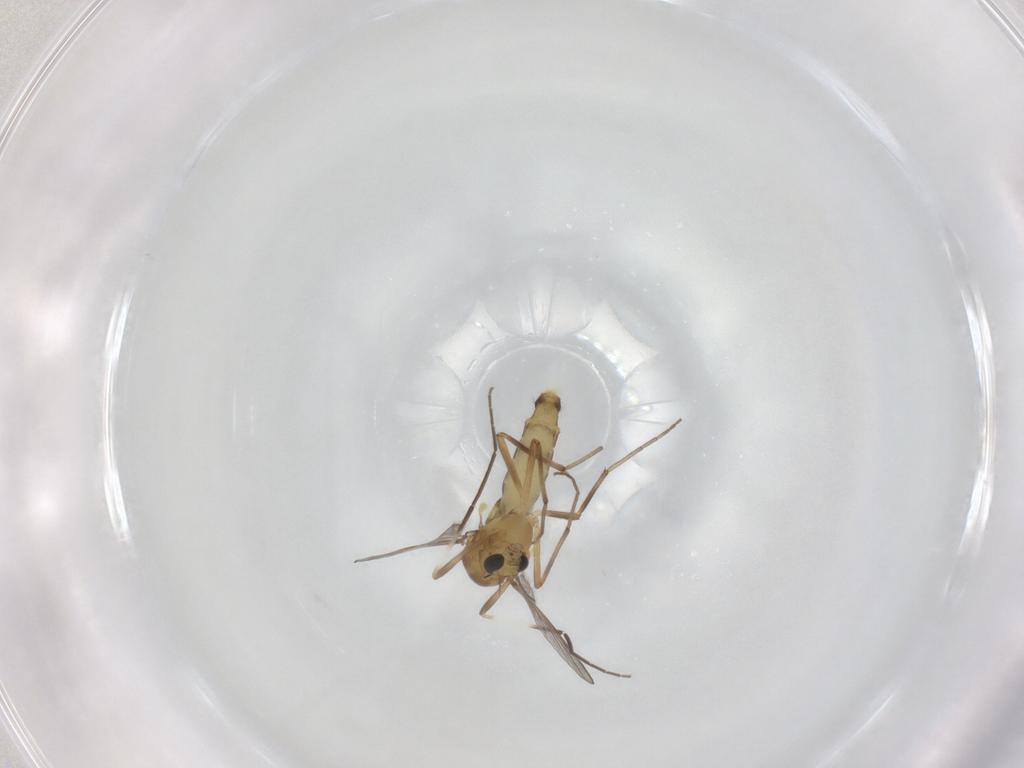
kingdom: Animalia
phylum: Arthropoda
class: Insecta
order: Diptera
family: Chironomidae
